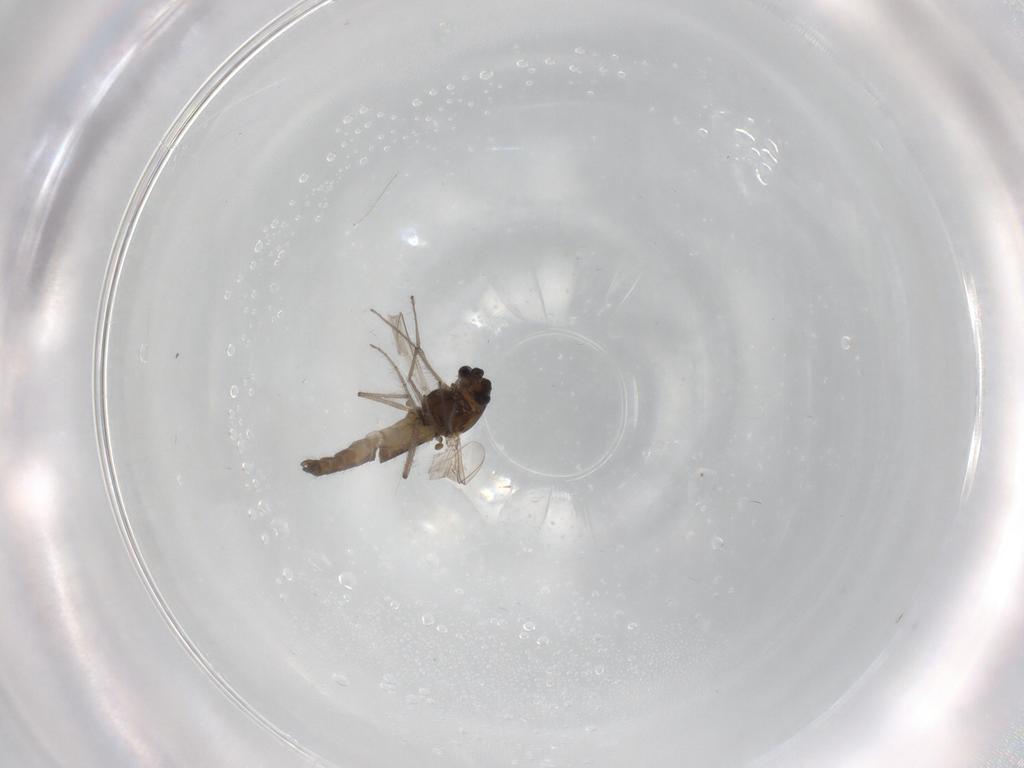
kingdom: Animalia
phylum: Arthropoda
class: Insecta
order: Diptera
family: Chironomidae
